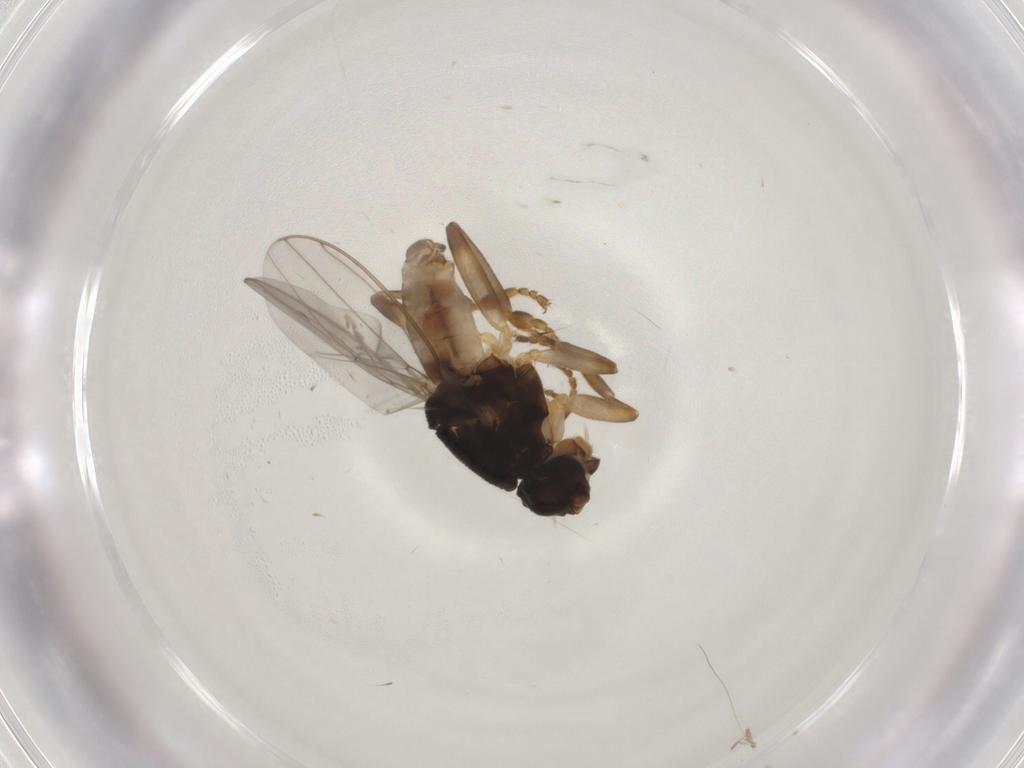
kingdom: Animalia
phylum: Arthropoda
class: Insecta
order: Diptera
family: Sphaeroceridae
